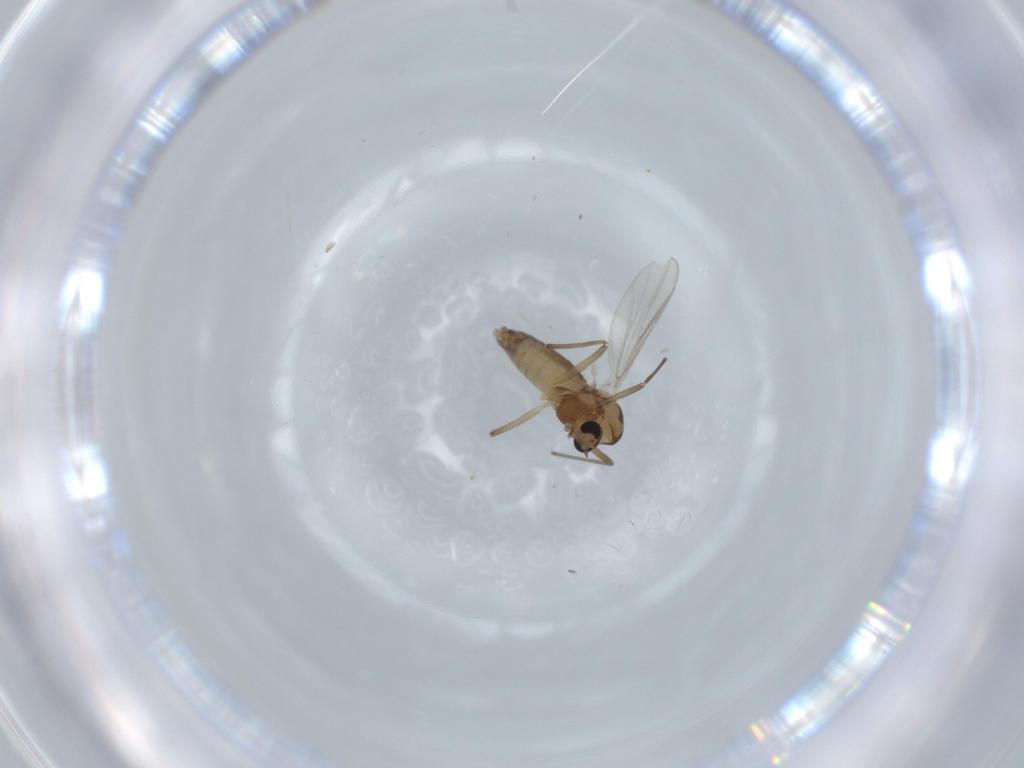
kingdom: Animalia
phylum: Arthropoda
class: Insecta
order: Diptera
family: Chironomidae
